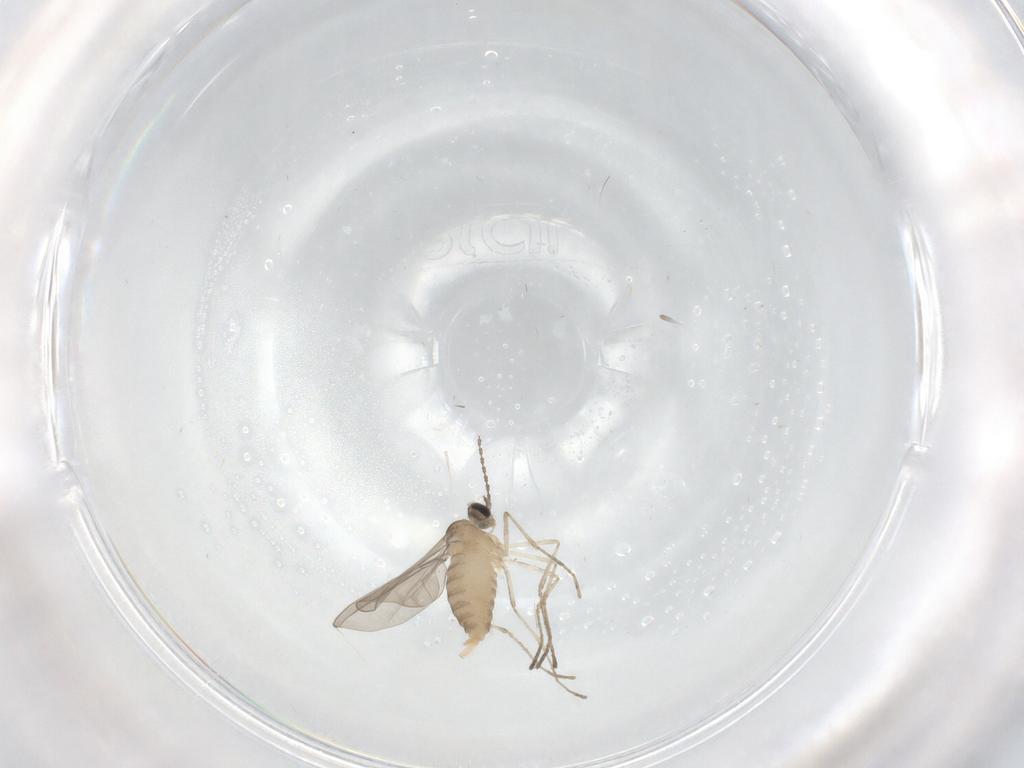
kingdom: Animalia
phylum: Arthropoda
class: Insecta
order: Diptera
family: Cecidomyiidae
